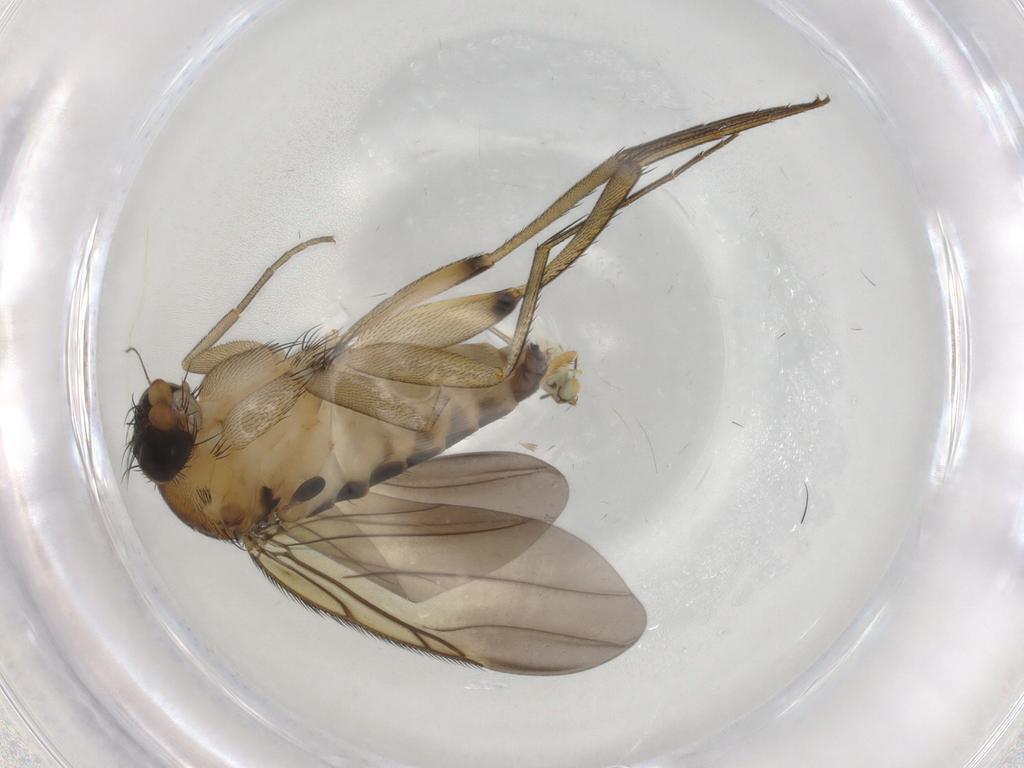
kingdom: Animalia
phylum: Arthropoda
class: Insecta
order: Diptera
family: Phoridae
